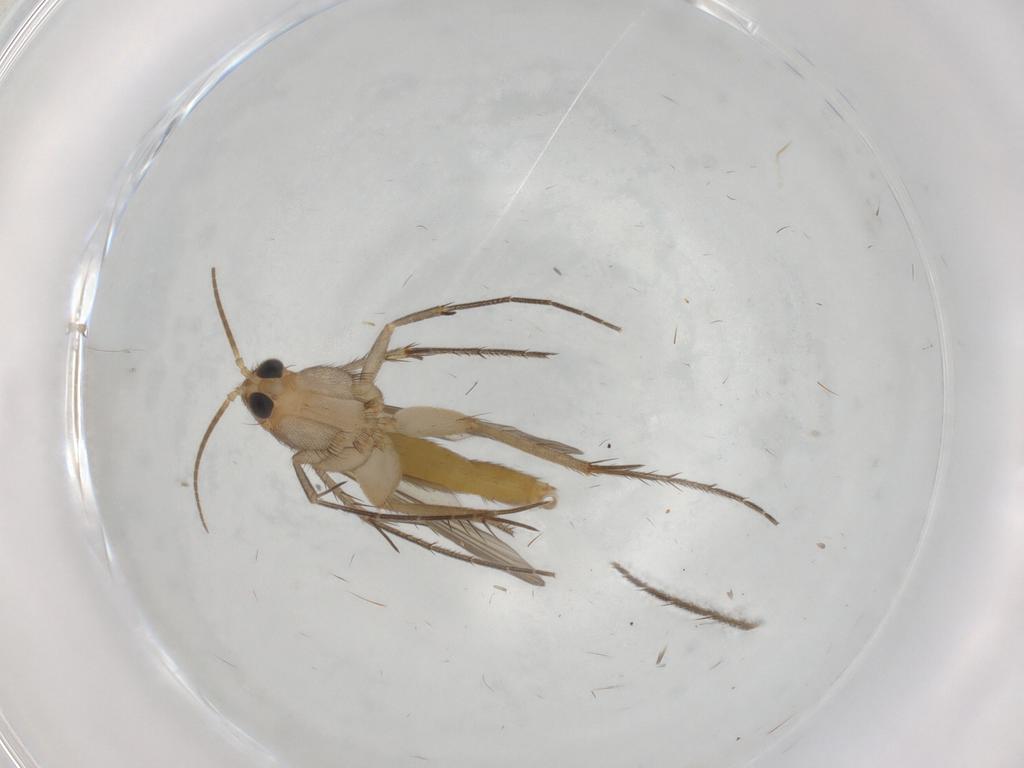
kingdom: Animalia
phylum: Arthropoda
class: Insecta
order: Diptera
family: Mycetophilidae
